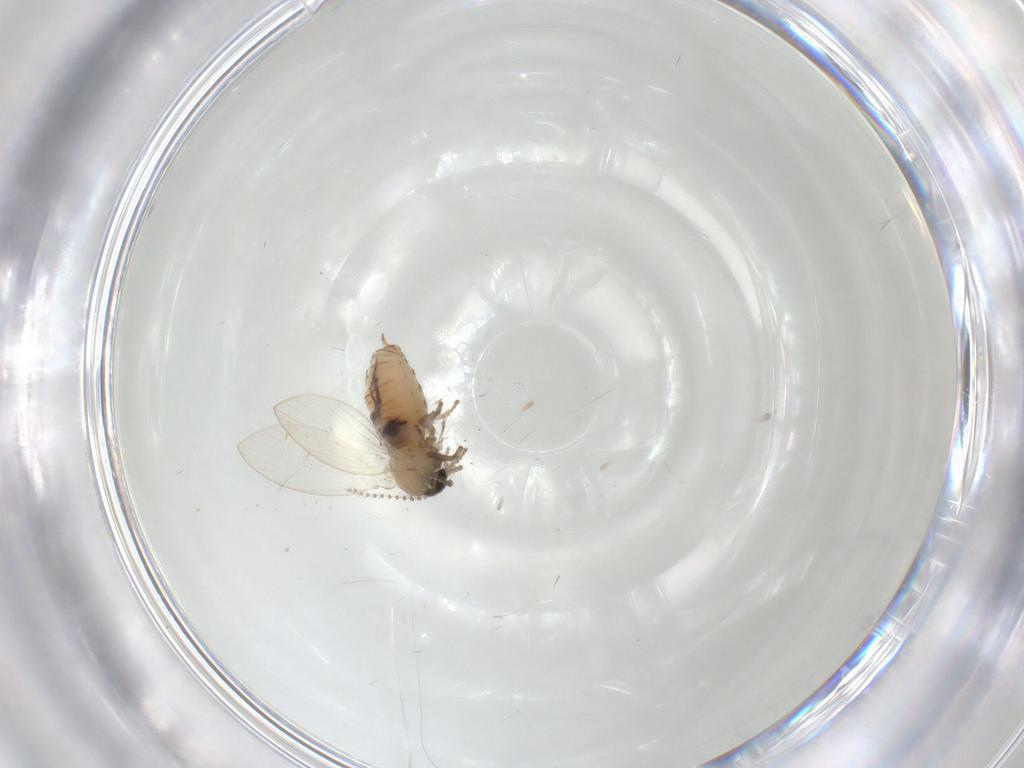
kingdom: Animalia
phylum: Arthropoda
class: Insecta
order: Diptera
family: Psychodidae
